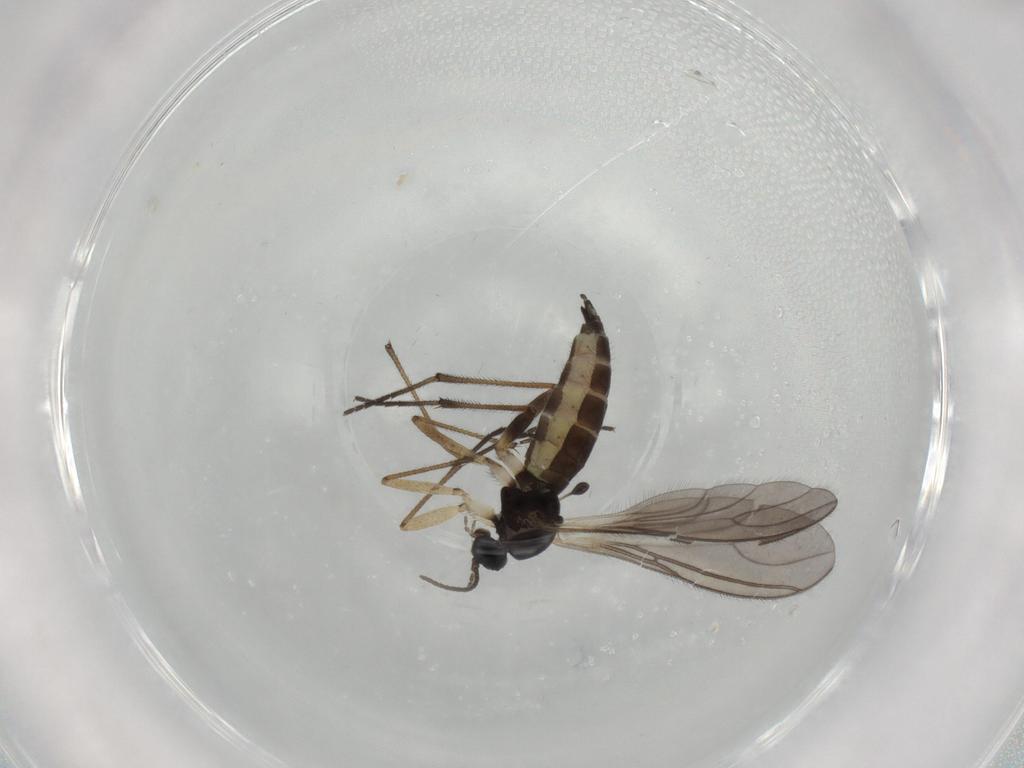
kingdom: Animalia
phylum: Arthropoda
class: Insecta
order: Diptera
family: Sciaridae
